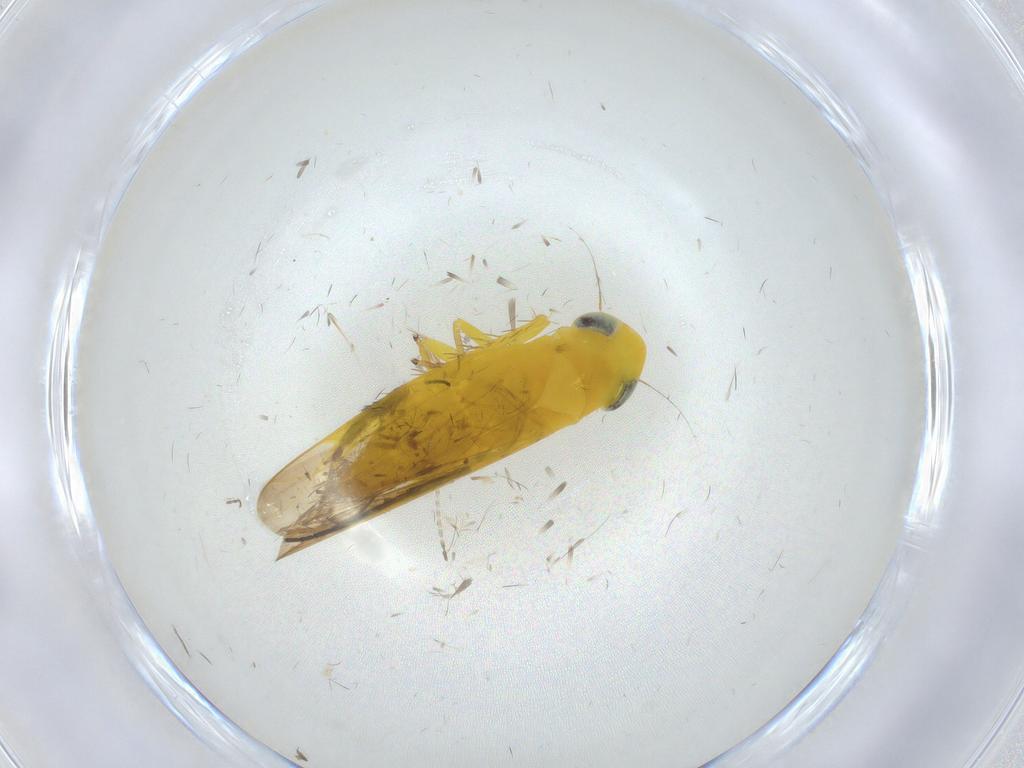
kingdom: Animalia
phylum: Arthropoda
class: Insecta
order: Hemiptera
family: Cicadellidae
